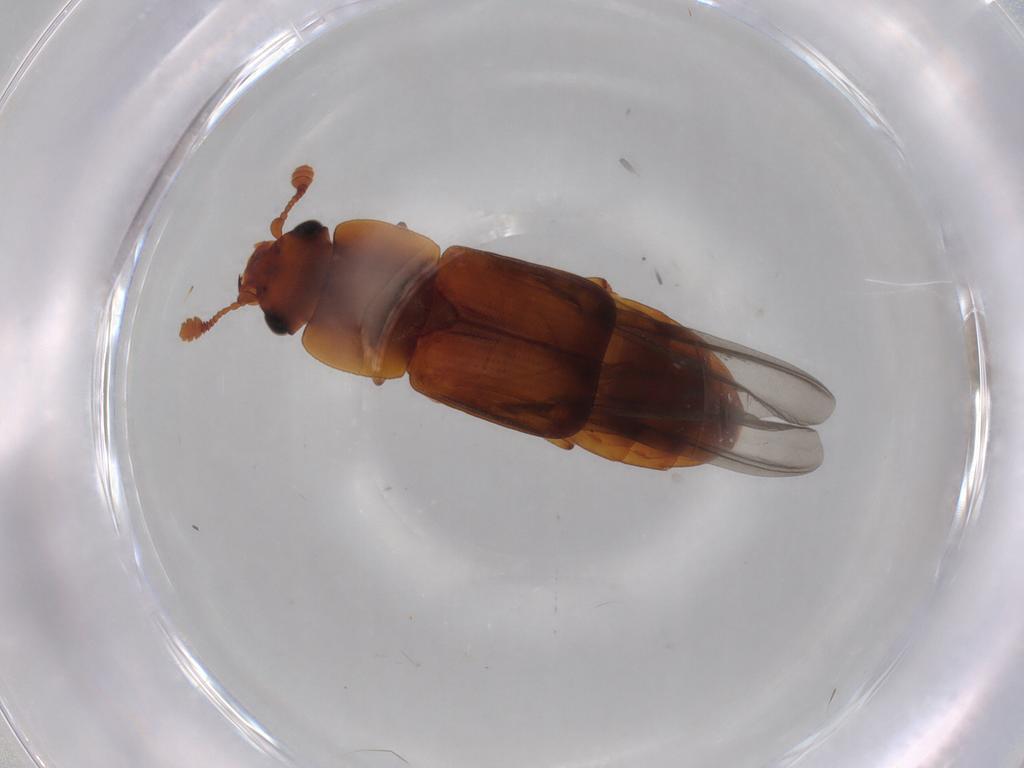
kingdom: Animalia
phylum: Arthropoda
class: Insecta
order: Coleoptera
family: Nitidulidae
